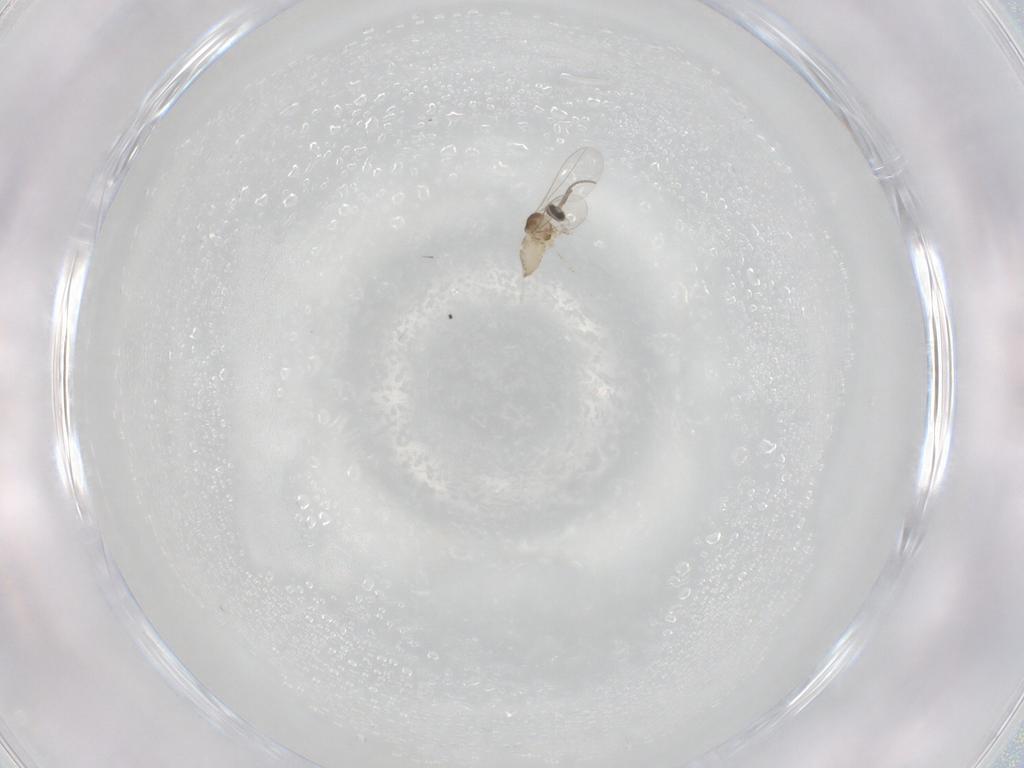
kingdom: Animalia
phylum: Arthropoda
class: Insecta
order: Diptera
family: Cecidomyiidae
